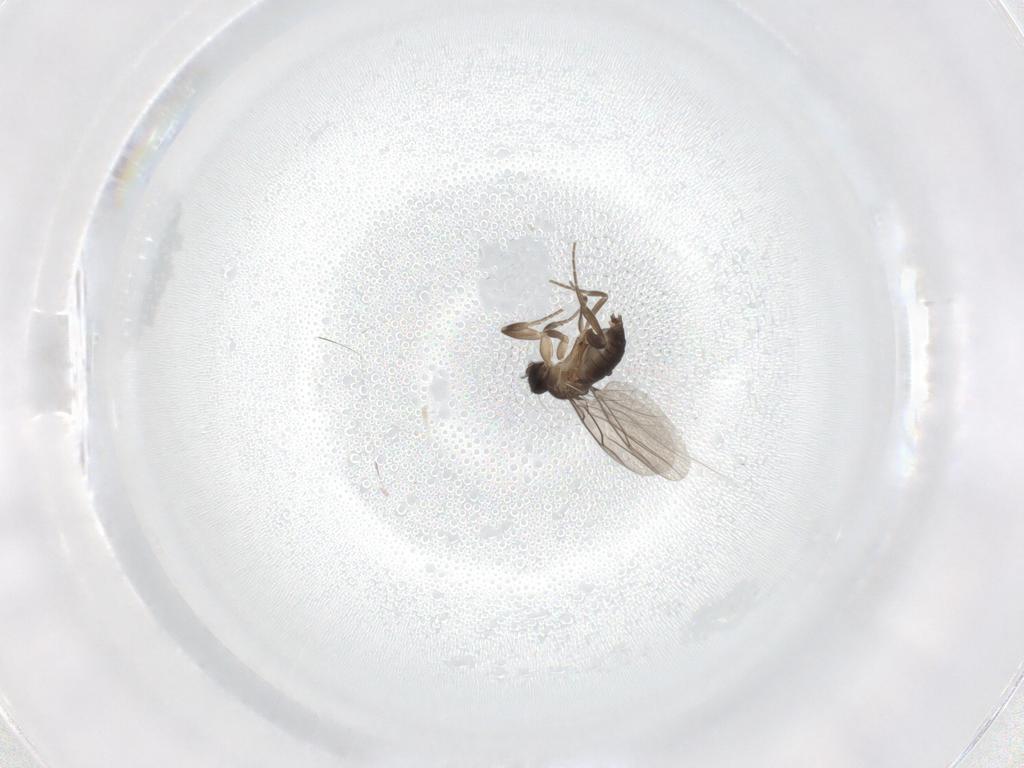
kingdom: Animalia
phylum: Arthropoda
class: Insecta
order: Diptera
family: Phoridae
